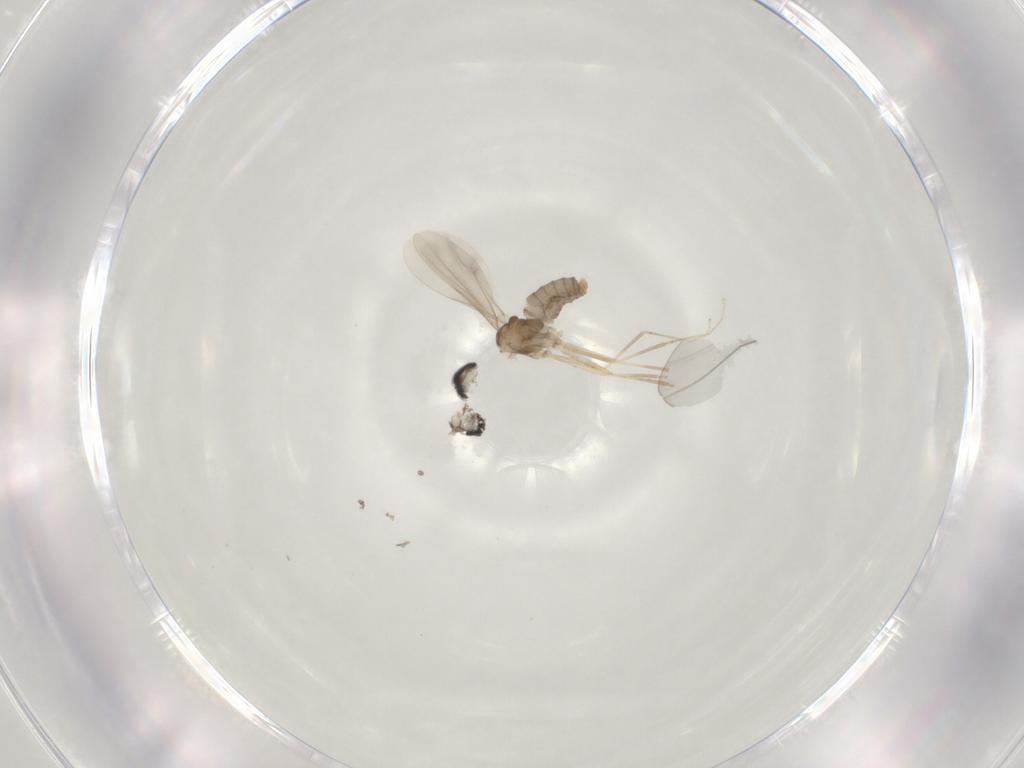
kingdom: Animalia
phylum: Arthropoda
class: Insecta
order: Diptera
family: Cecidomyiidae
